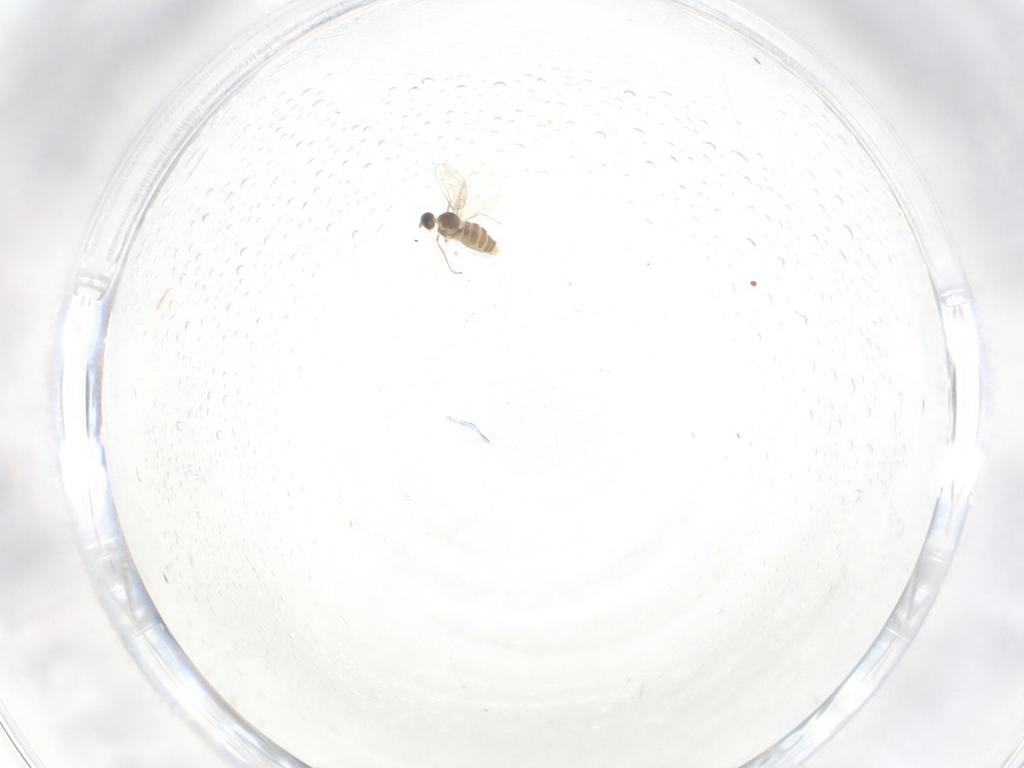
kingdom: Animalia
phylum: Arthropoda
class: Insecta
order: Diptera
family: Cecidomyiidae
